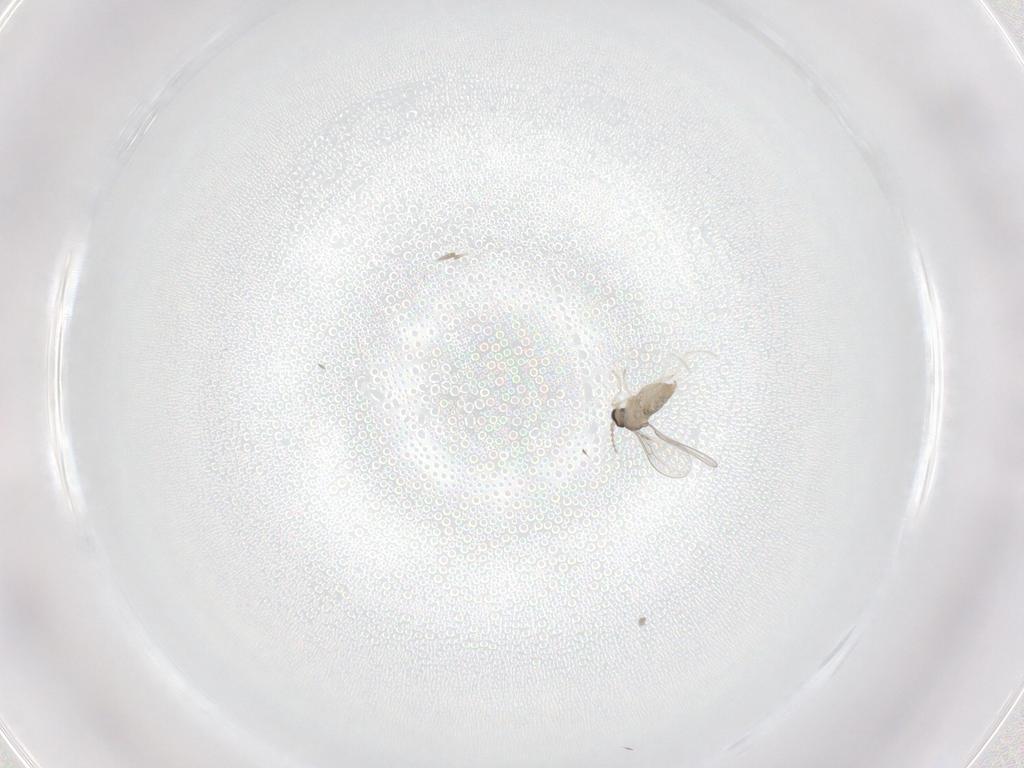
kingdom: Animalia
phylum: Arthropoda
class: Insecta
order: Diptera
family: Cecidomyiidae
